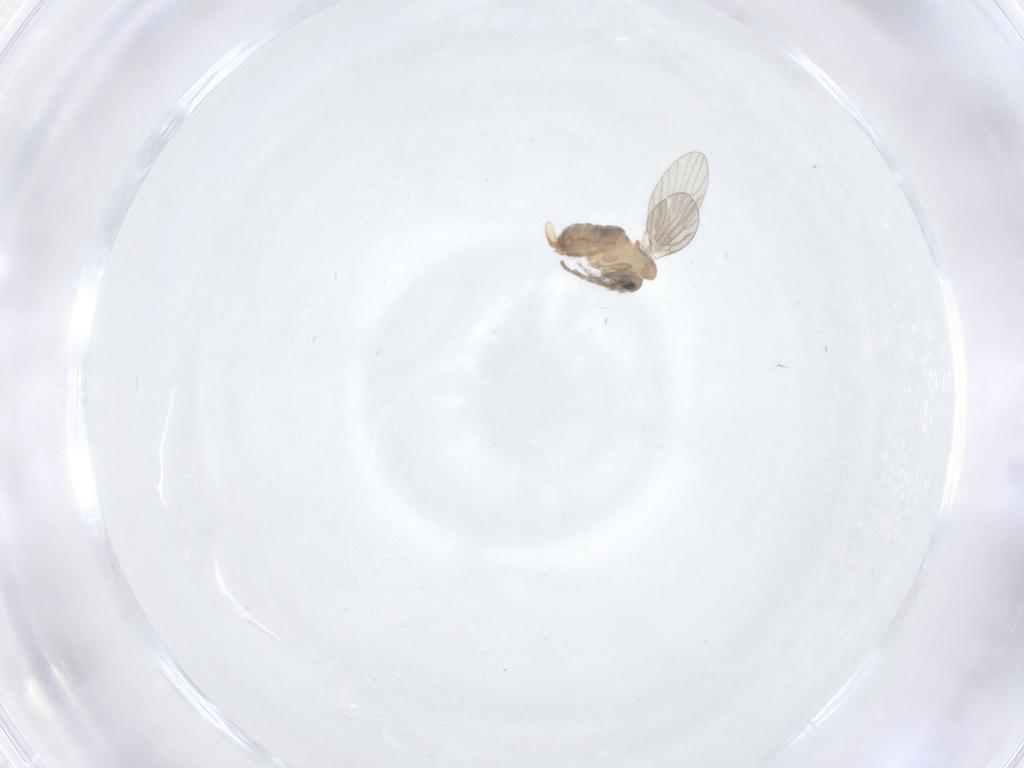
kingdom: Animalia
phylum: Arthropoda
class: Insecta
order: Diptera
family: Psychodidae
